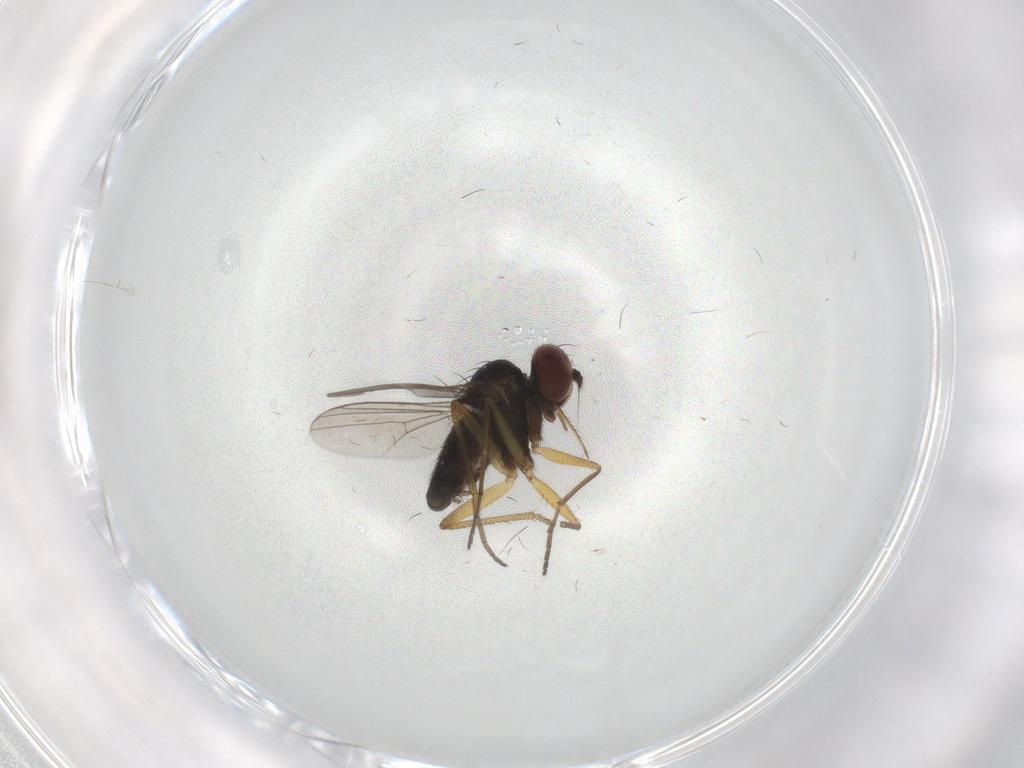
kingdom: Animalia
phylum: Arthropoda
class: Insecta
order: Diptera
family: Dolichopodidae
